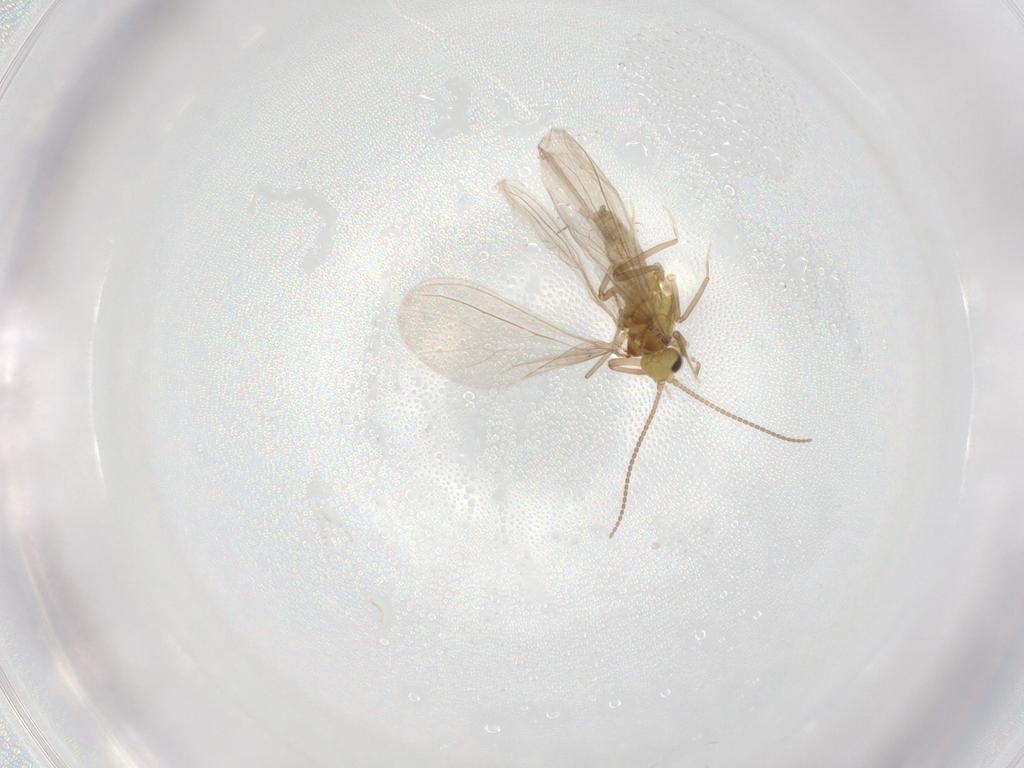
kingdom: Animalia
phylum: Arthropoda
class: Insecta
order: Neuroptera
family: Coniopterygidae
